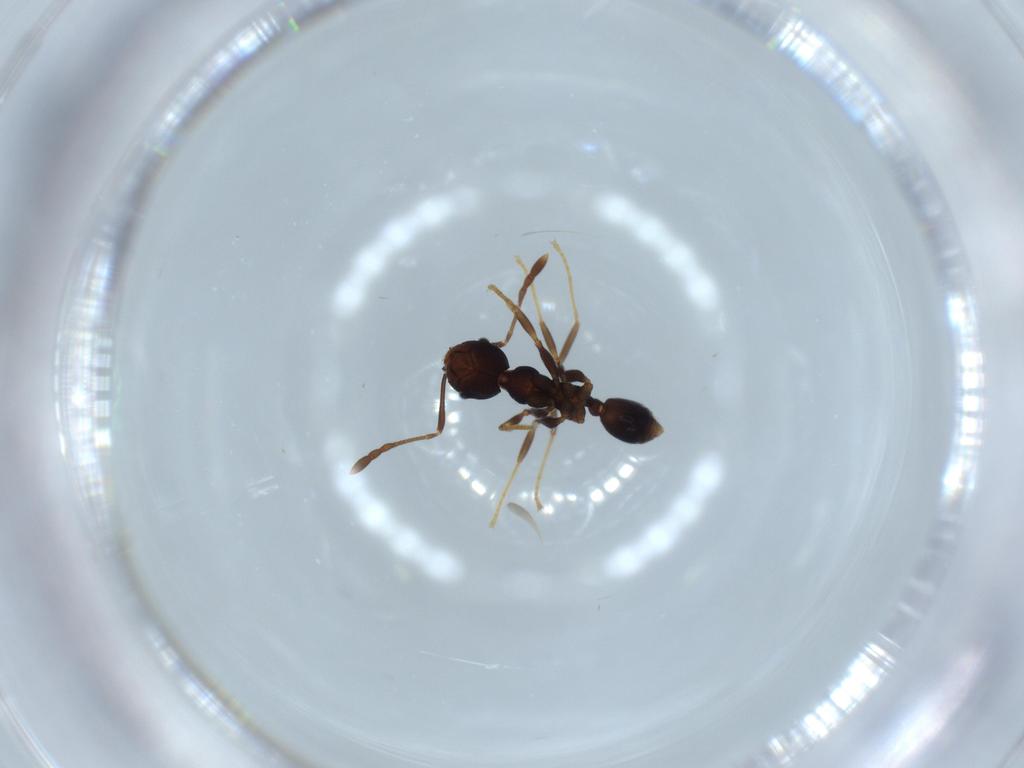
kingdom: Animalia
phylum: Arthropoda
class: Insecta
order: Hymenoptera
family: Formicidae
